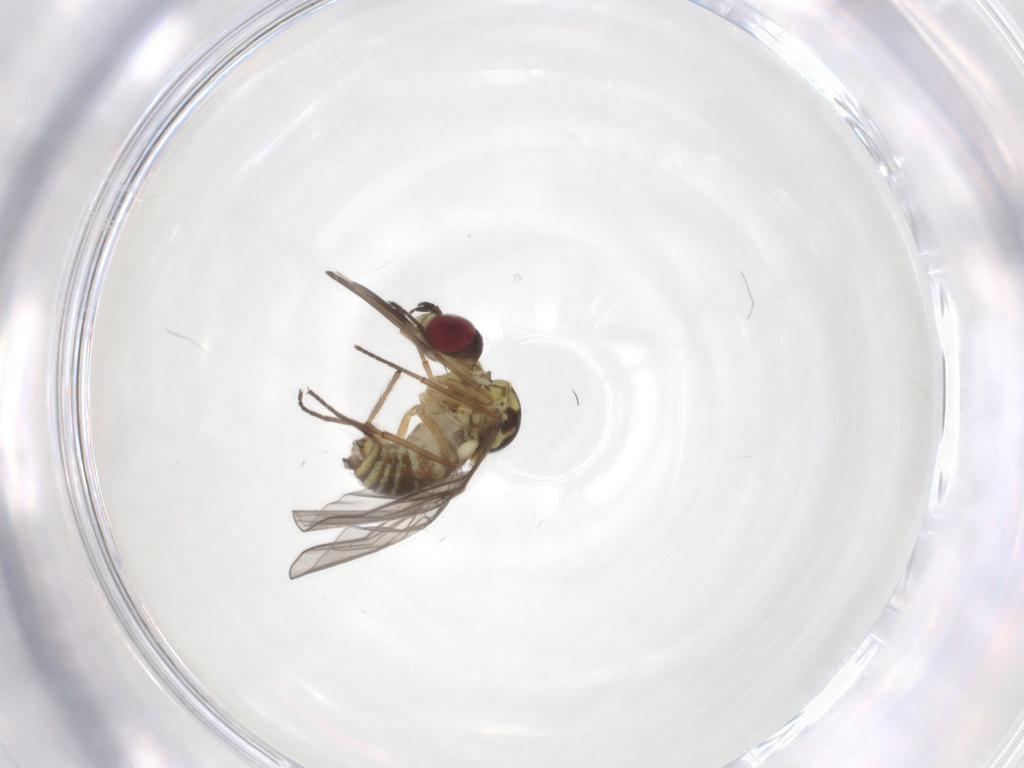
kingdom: Animalia
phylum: Arthropoda
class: Insecta
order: Diptera
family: Bombyliidae
